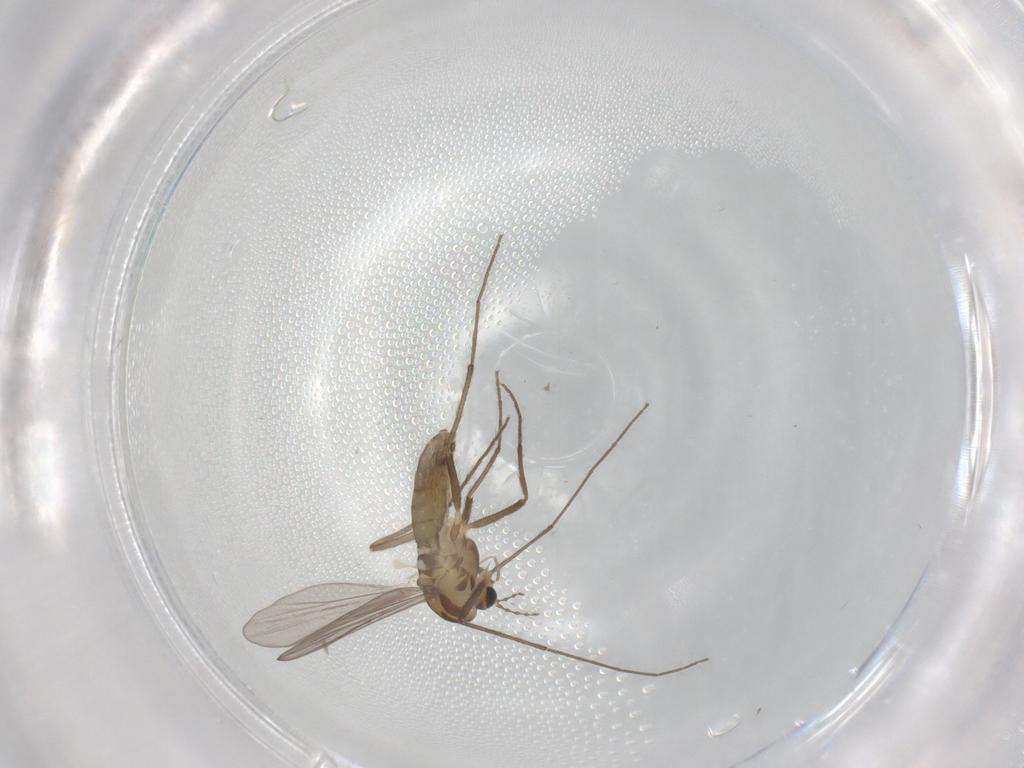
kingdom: Animalia
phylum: Arthropoda
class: Insecta
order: Diptera
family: Chironomidae
